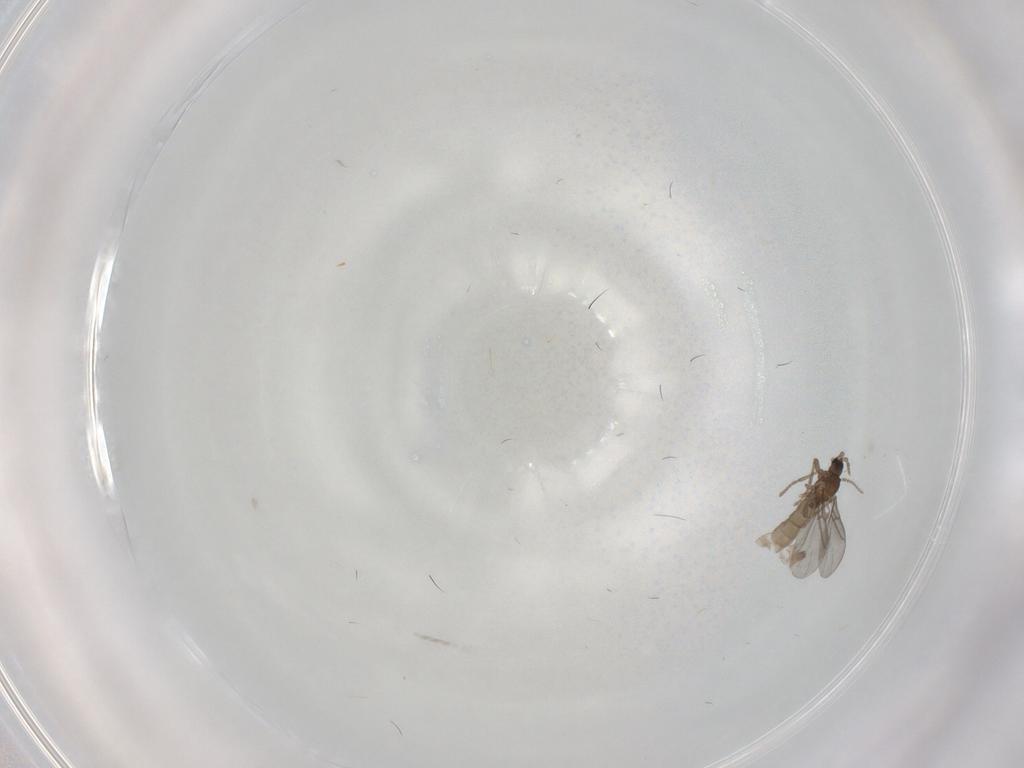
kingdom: Animalia
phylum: Arthropoda
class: Insecta
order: Diptera
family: Sciaridae
